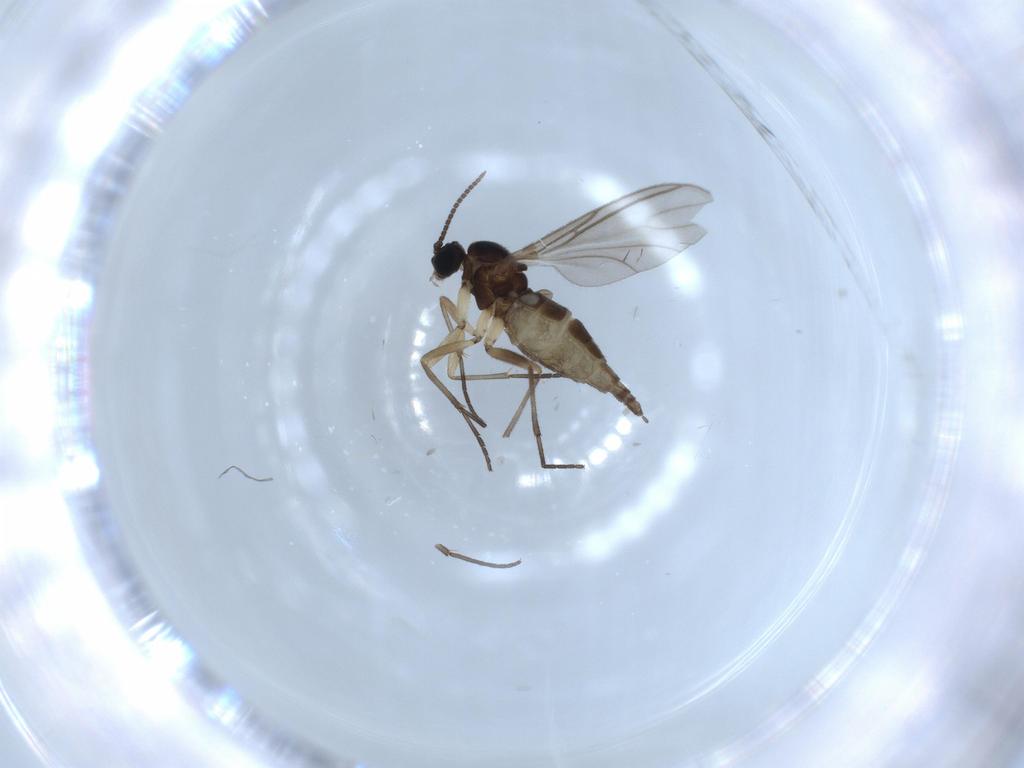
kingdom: Animalia
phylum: Arthropoda
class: Insecta
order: Diptera
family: Sciaridae
